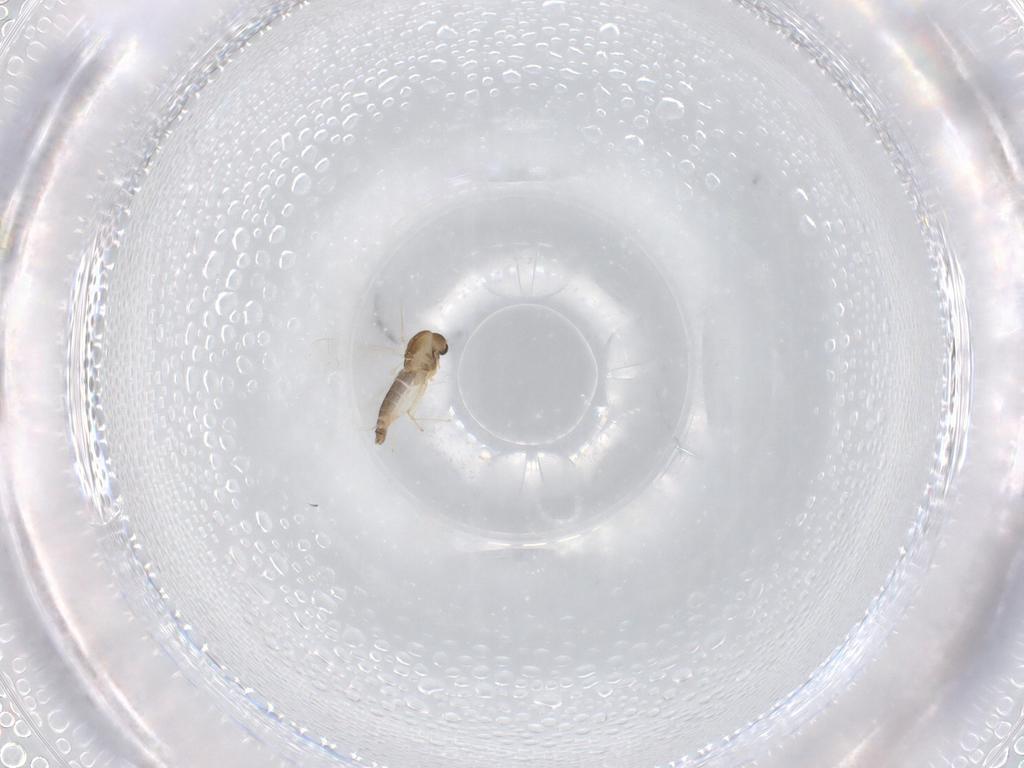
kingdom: Animalia
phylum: Arthropoda
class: Insecta
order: Diptera
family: Chironomidae
